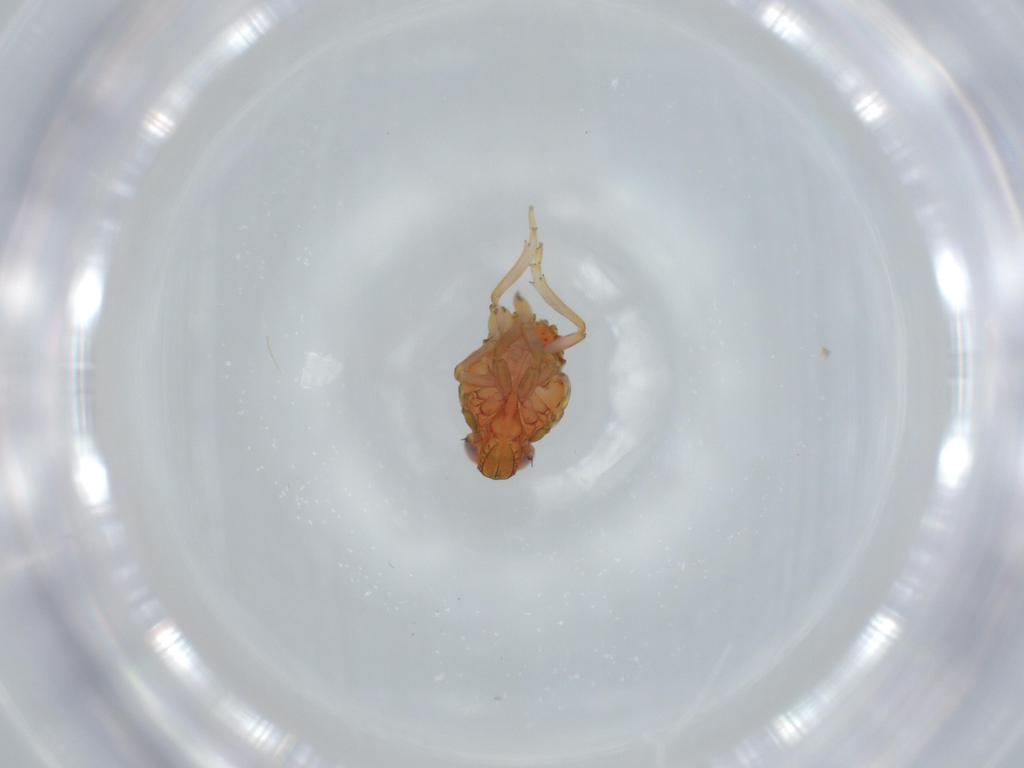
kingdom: Animalia
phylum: Arthropoda
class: Insecta
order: Hemiptera
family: Issidae
